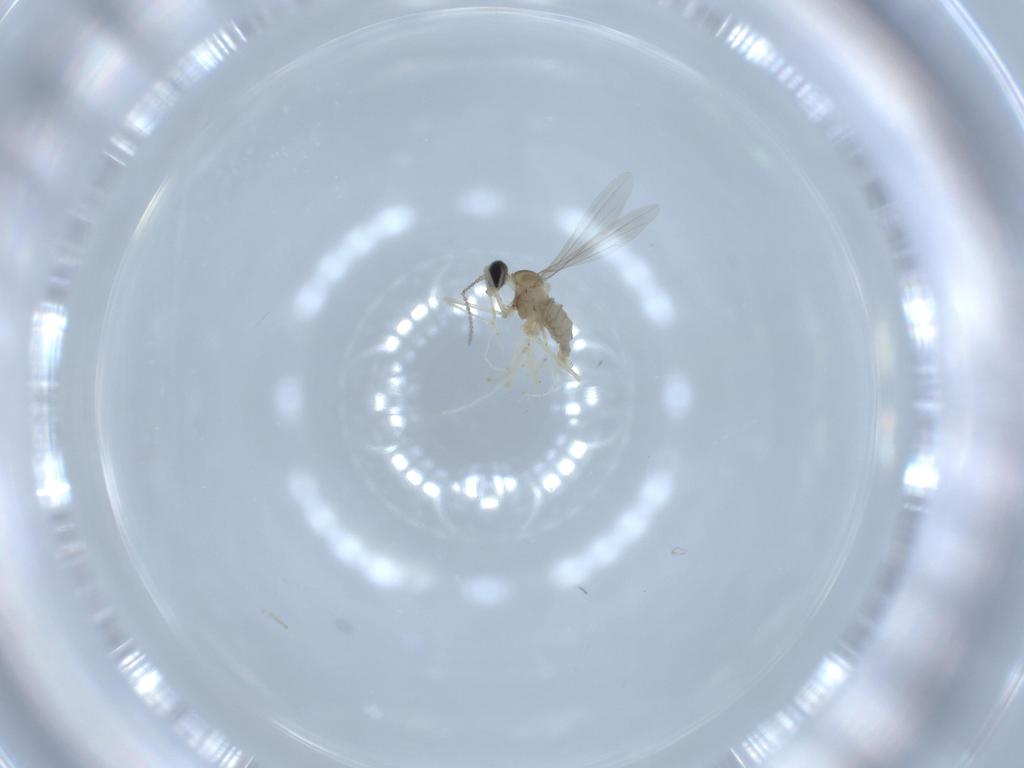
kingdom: Animalia
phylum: Arthropoda
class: Insecta
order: Diptera
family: Cecidomyiidae
